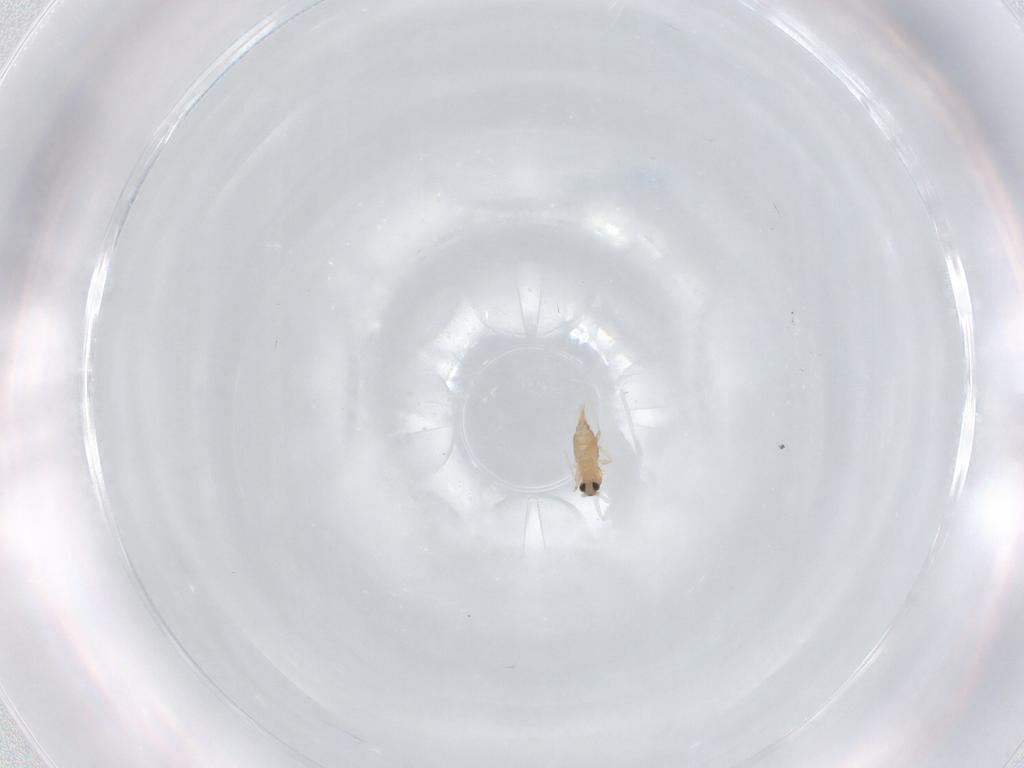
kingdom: Animalia
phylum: Arthropoda
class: Insecta
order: Diptera
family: Cecidomyiidae
